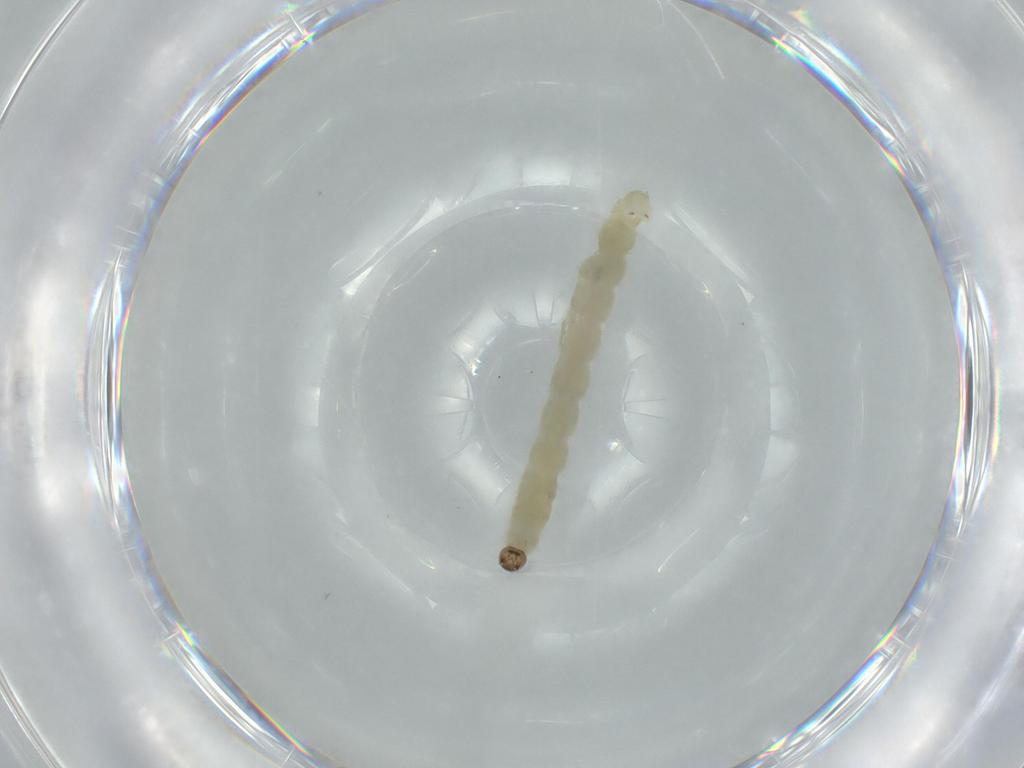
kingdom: Animalia
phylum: Arthropoda
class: Insecta
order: Diptera
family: Chironomidae
